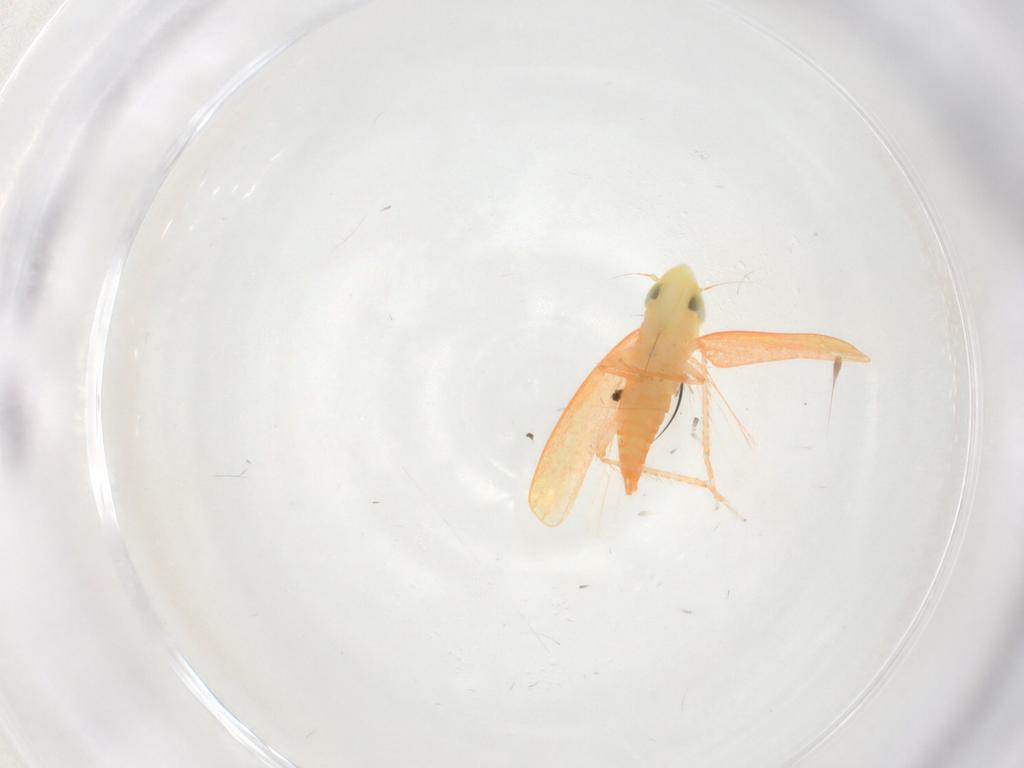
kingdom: Animalia
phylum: Arthropoda
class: Insecta
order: Hemiptera
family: Cicadellidae
